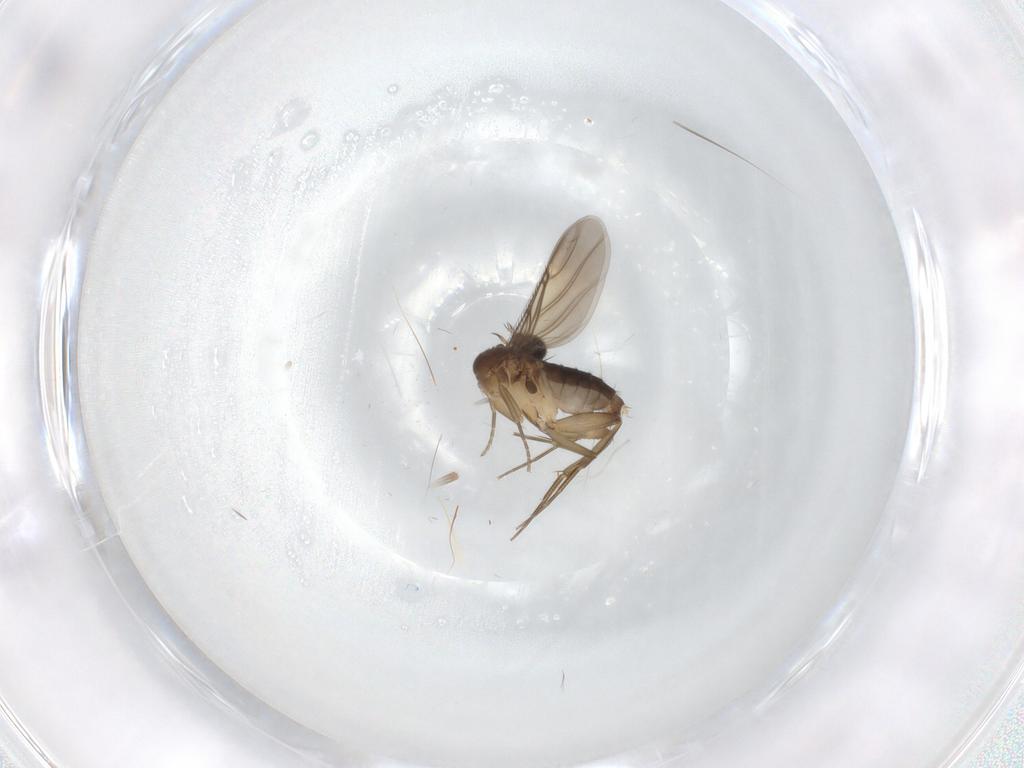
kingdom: Animalia
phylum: Arthropoda
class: Insecta
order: Diptera
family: Phoridae
